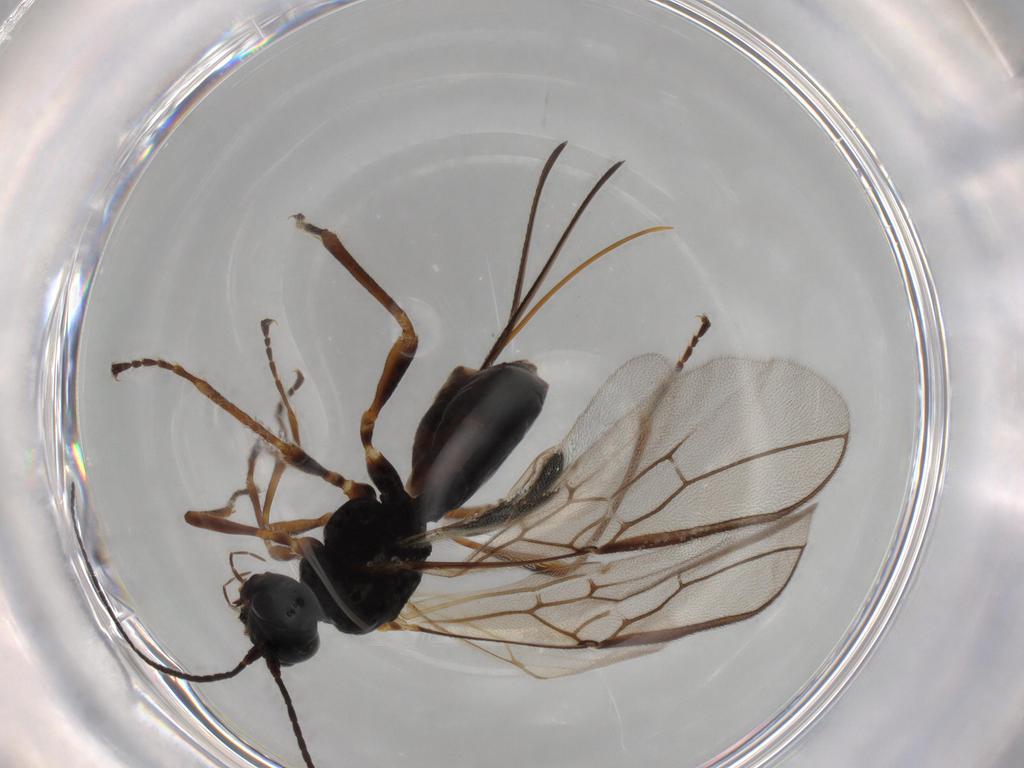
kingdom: Animalia
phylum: Arthropoda
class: Insecta
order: Hymenoptera
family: Braconidae
